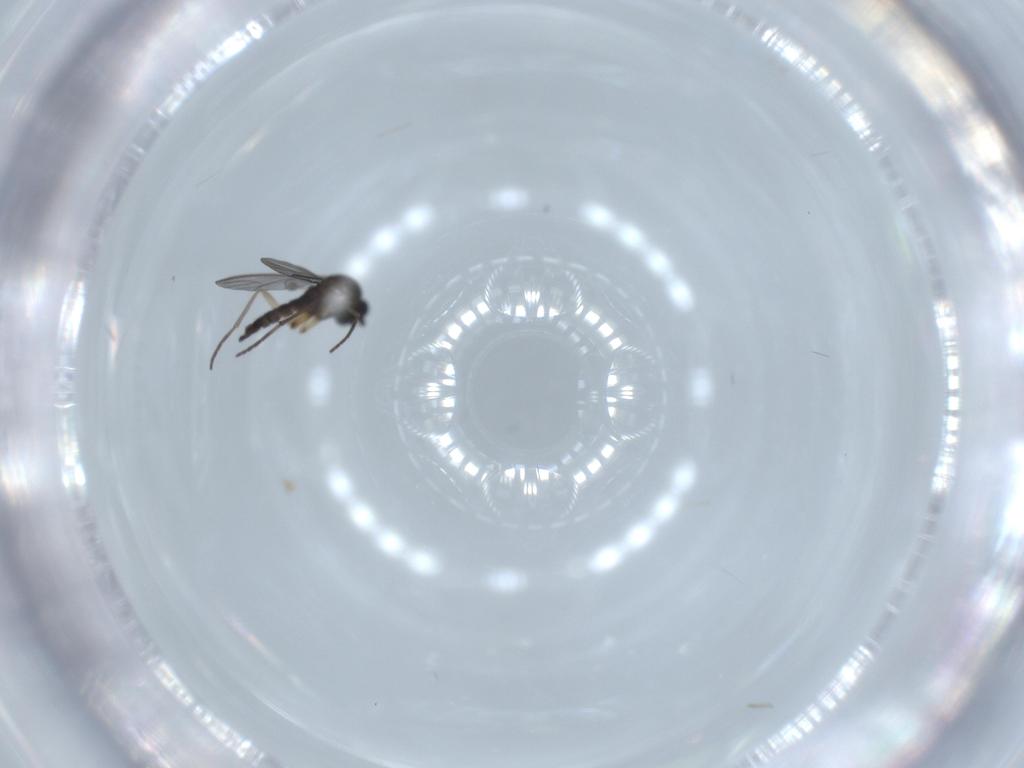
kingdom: Animalia
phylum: Arthropoda
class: Insecta
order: Diptera
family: Sciaridae
